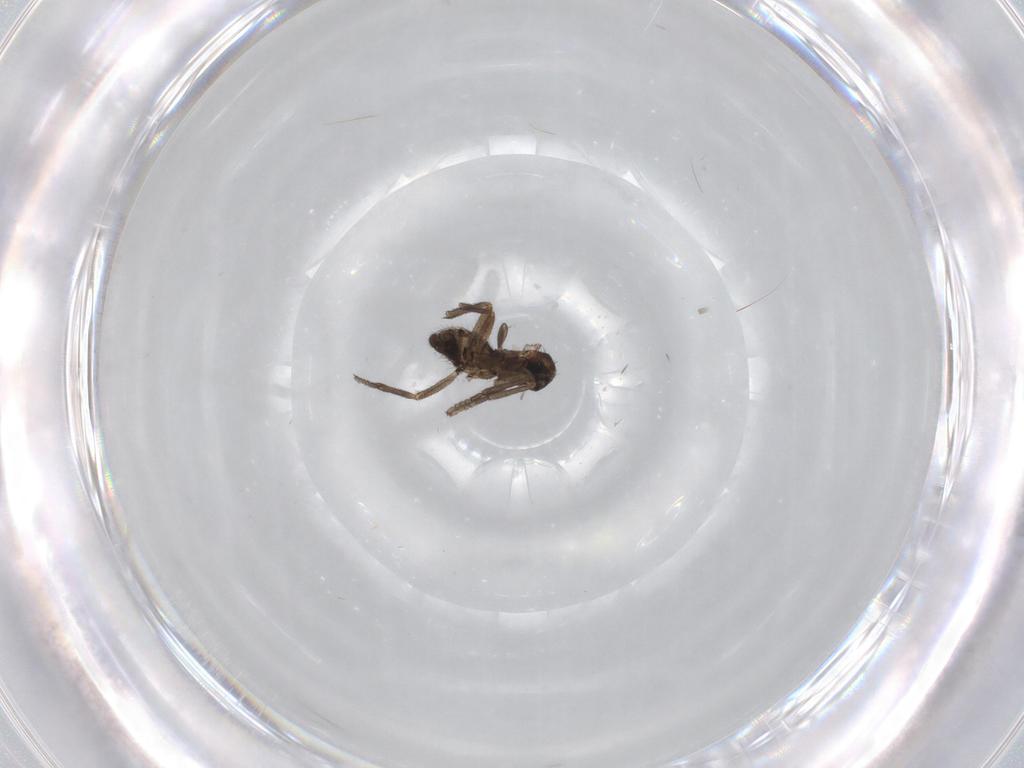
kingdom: Animalia
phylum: Arthropoda
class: Insecta
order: Diptera
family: Sciaridae
